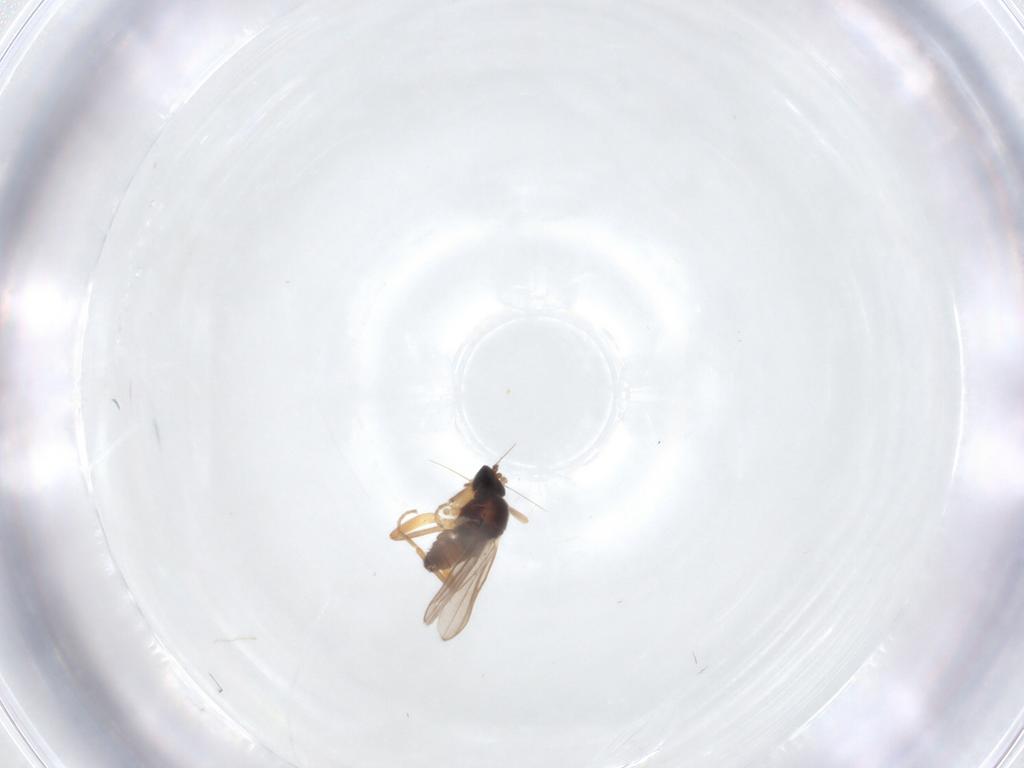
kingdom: Animalia
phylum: Arthropoda
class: Insecta
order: Diptera
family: Hybotidae
